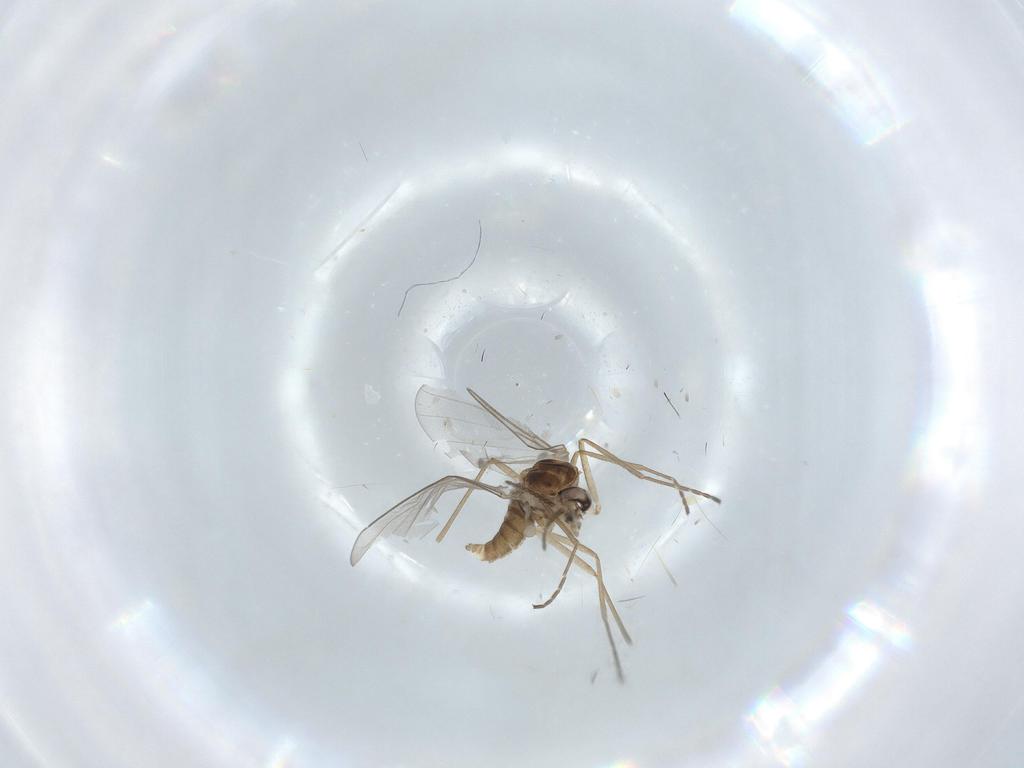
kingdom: Animalia
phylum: Arthropoda
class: Insecta
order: Diptera
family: Cecidomyiidae
